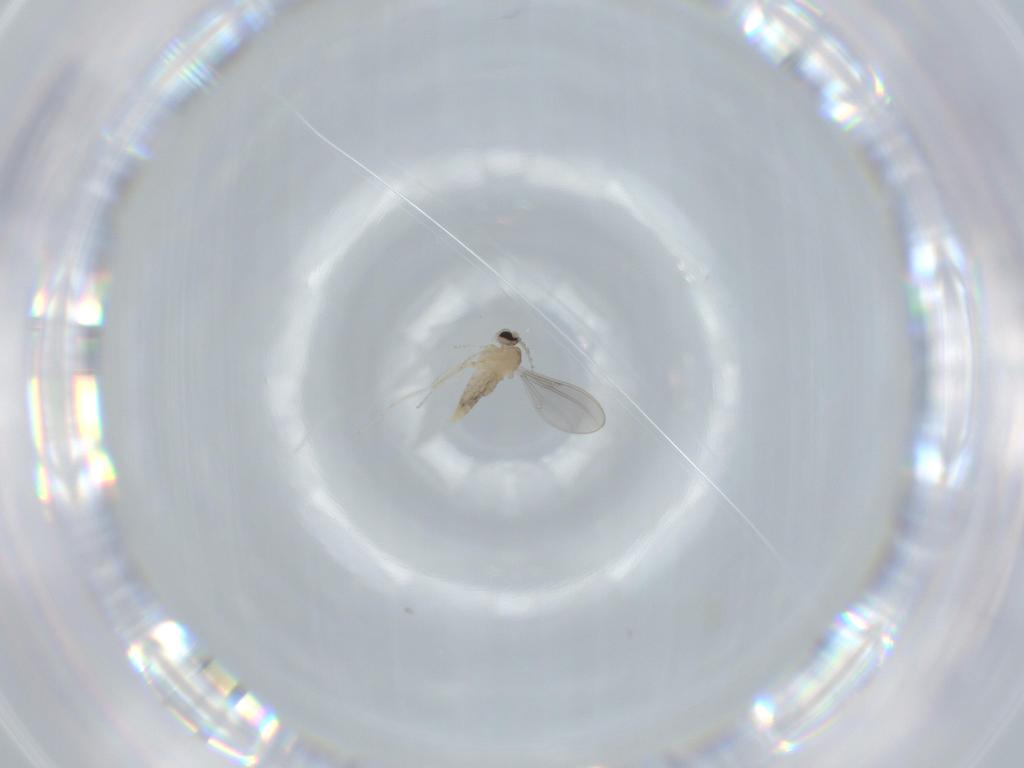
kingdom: Animalia
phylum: Arthropoda
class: Insecta
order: Diptera
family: Cecidomyiidae
